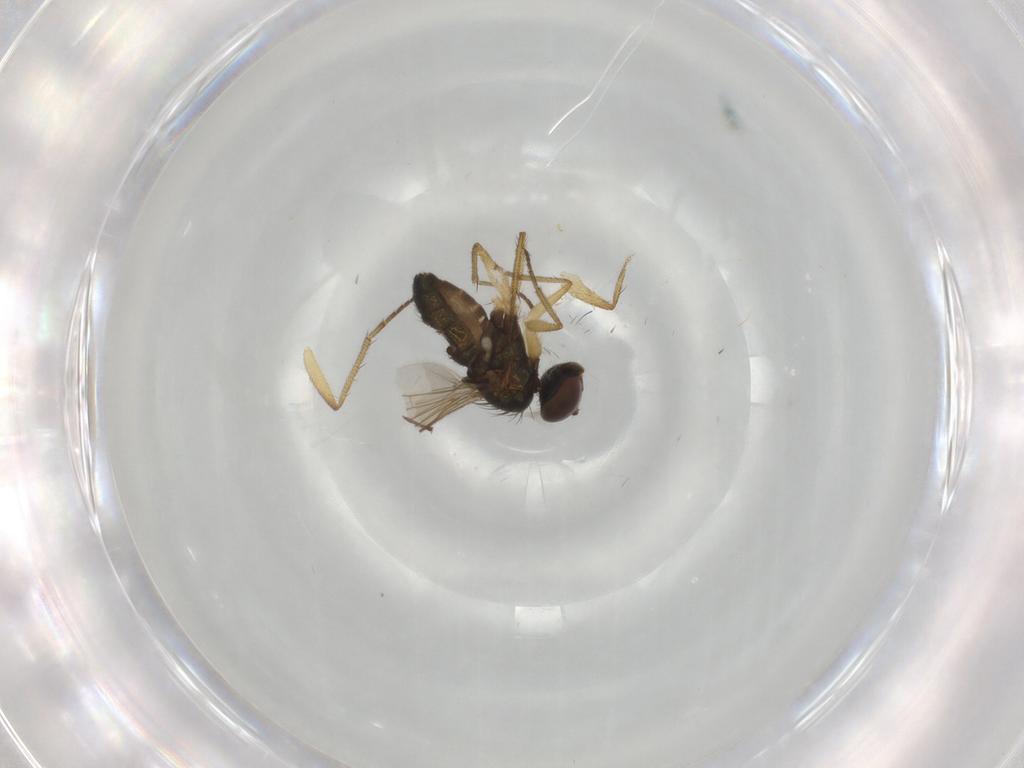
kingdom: Animalia
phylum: Arthropoda
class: Insecta
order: Diptera
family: Dolichopodidae
